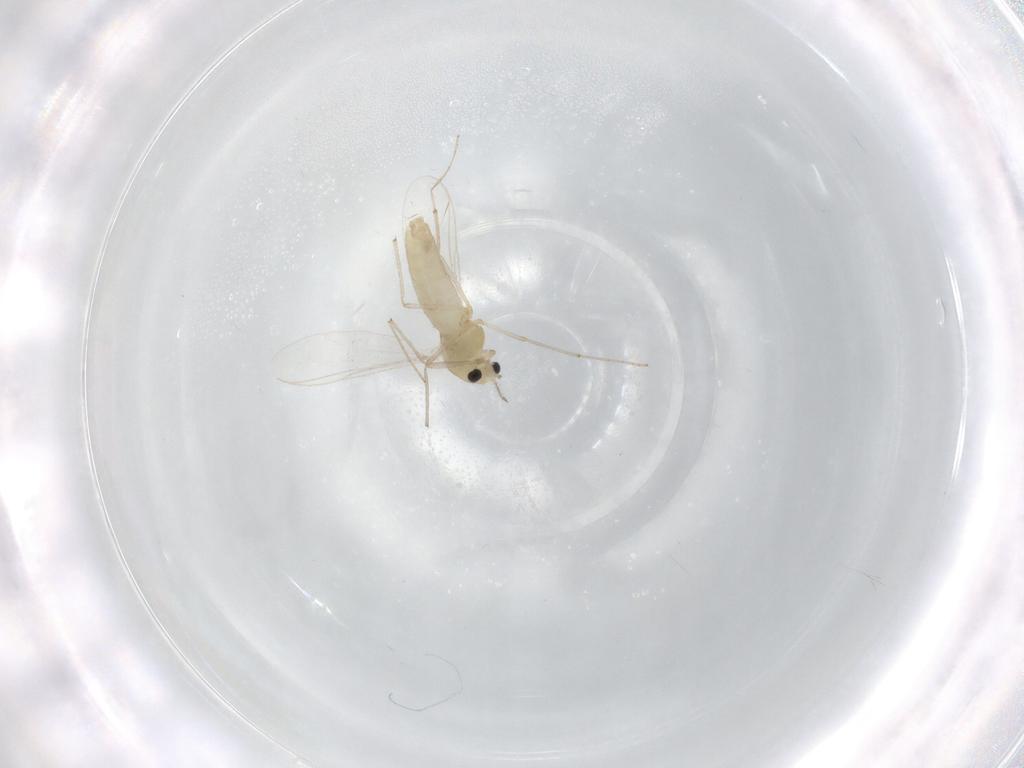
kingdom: Animalia
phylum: Arthropoda
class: Insecta
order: Diptera
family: Chironomidae
